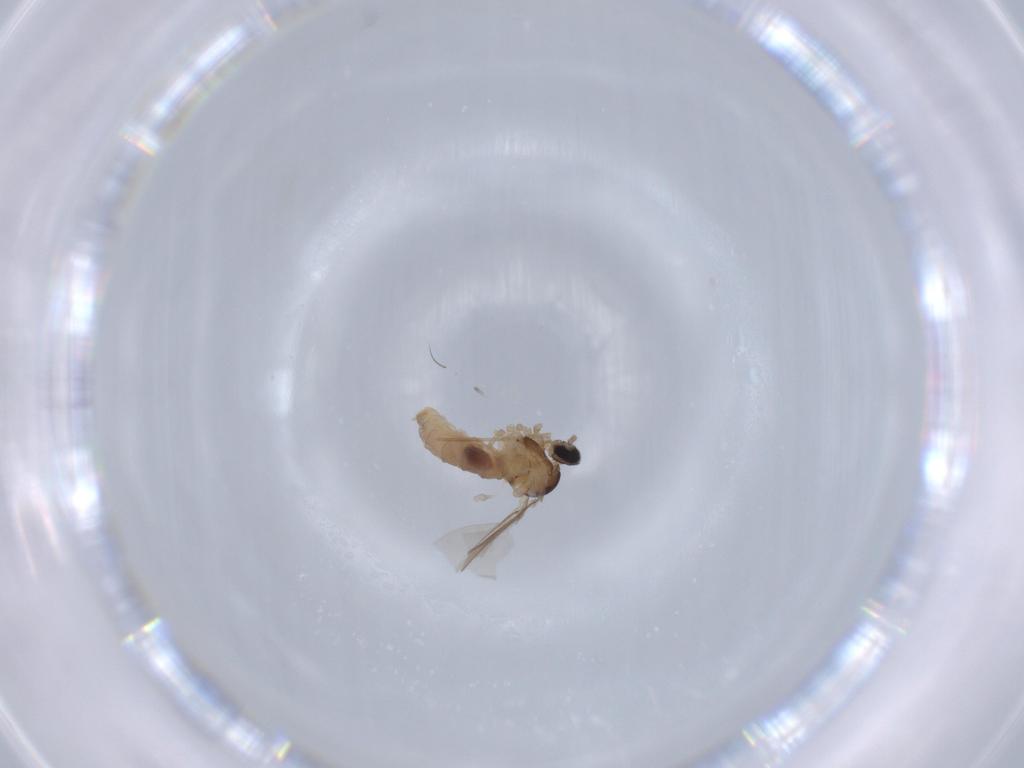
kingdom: Animalia
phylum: Arthropoda
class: Insecta
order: Diptera
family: Cecidomyiidae
